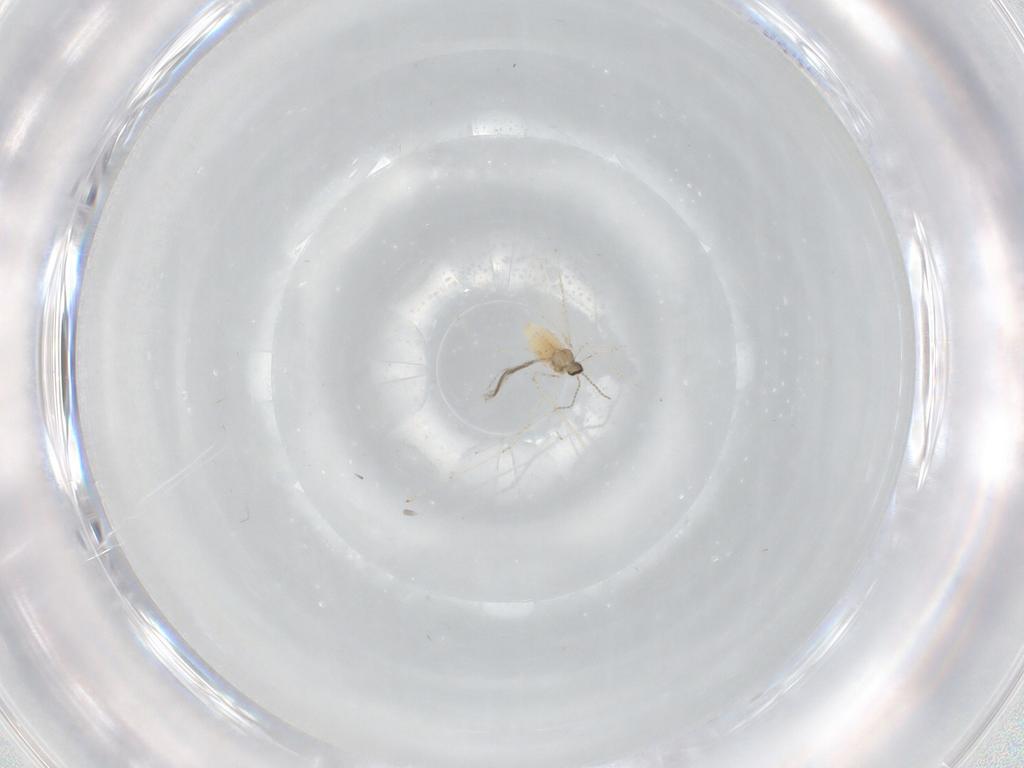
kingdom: Animalia
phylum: Arthropoda
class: Insecta
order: Diptera
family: Cecidomyiidae
